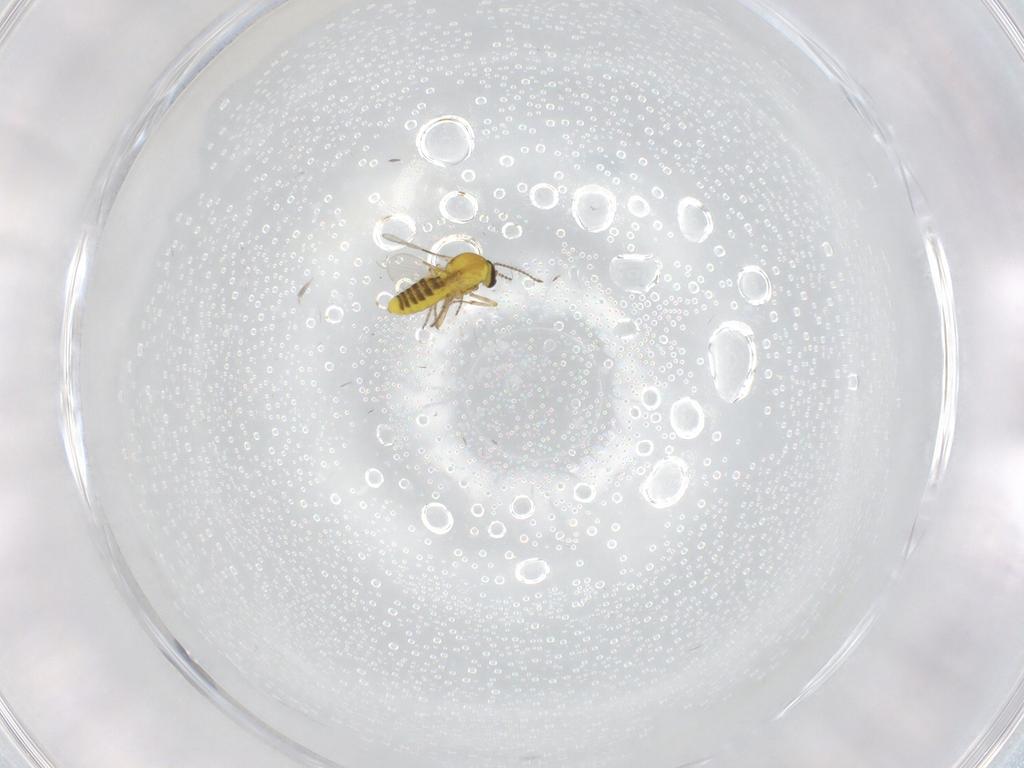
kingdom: Animalia
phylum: Arthropoda
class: Insecta
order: Diptera
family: Ceratopogonidae
